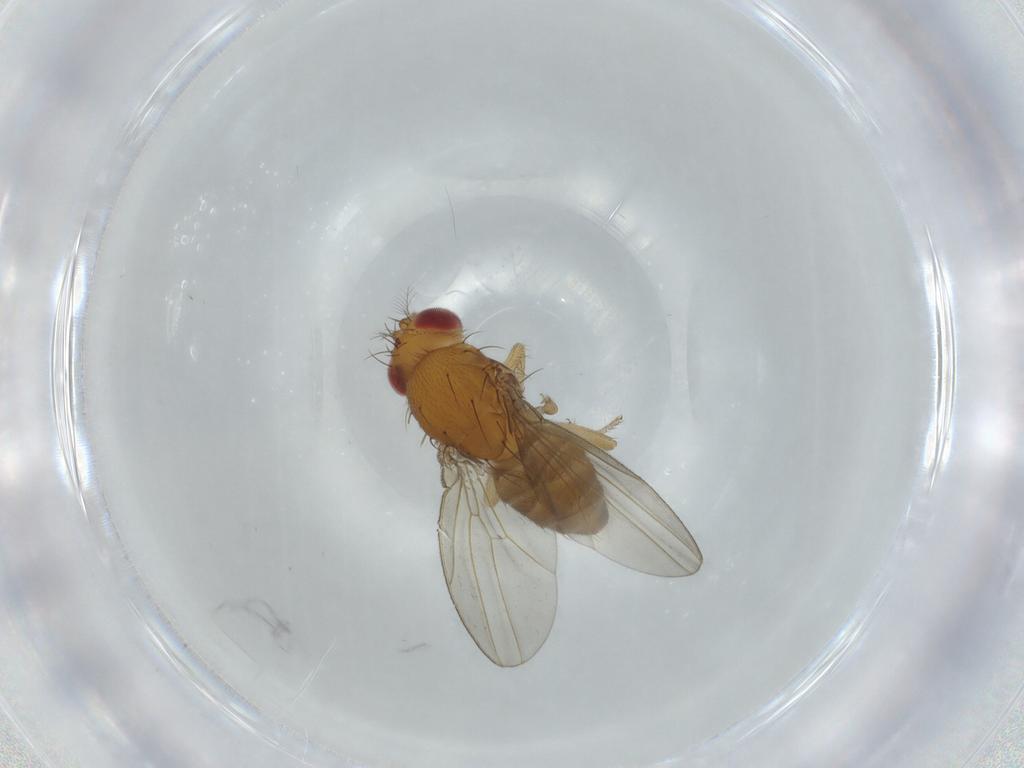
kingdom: Animalia
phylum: Arthropoda
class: Insecta
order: Diptera
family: Drosophilidae
